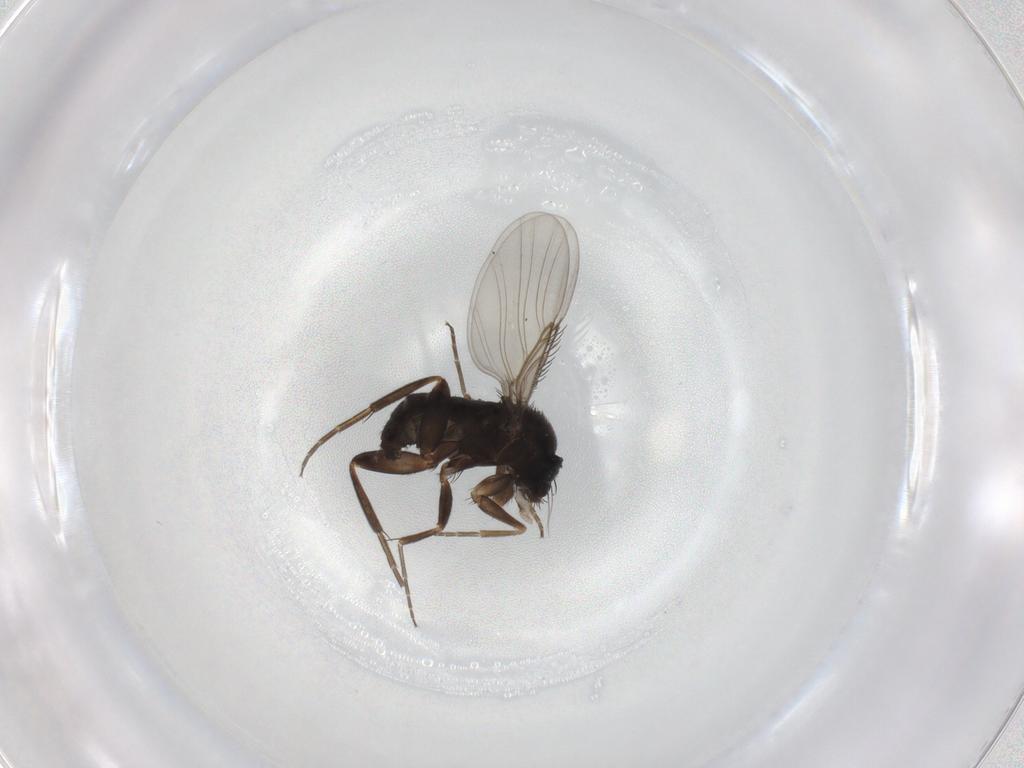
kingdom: Animalia
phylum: Arthropoda
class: Insecta
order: Diptera
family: Phoridae
